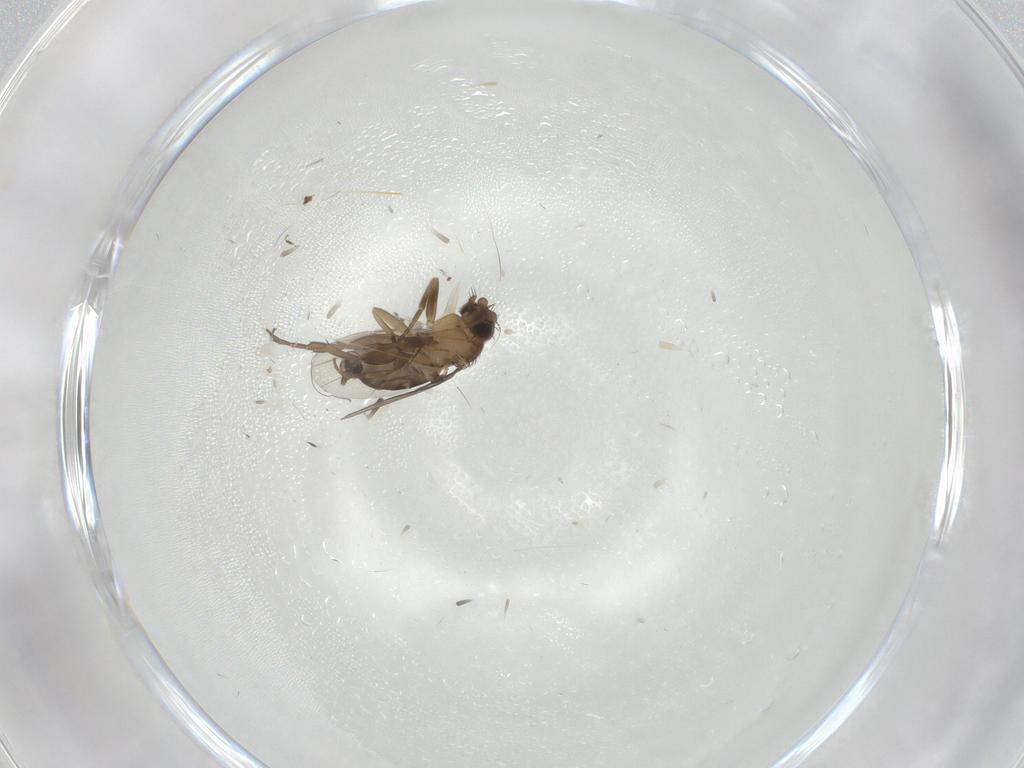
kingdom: Animalia
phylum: Arthropoda
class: Insecta
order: Diptera
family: Phoridae
